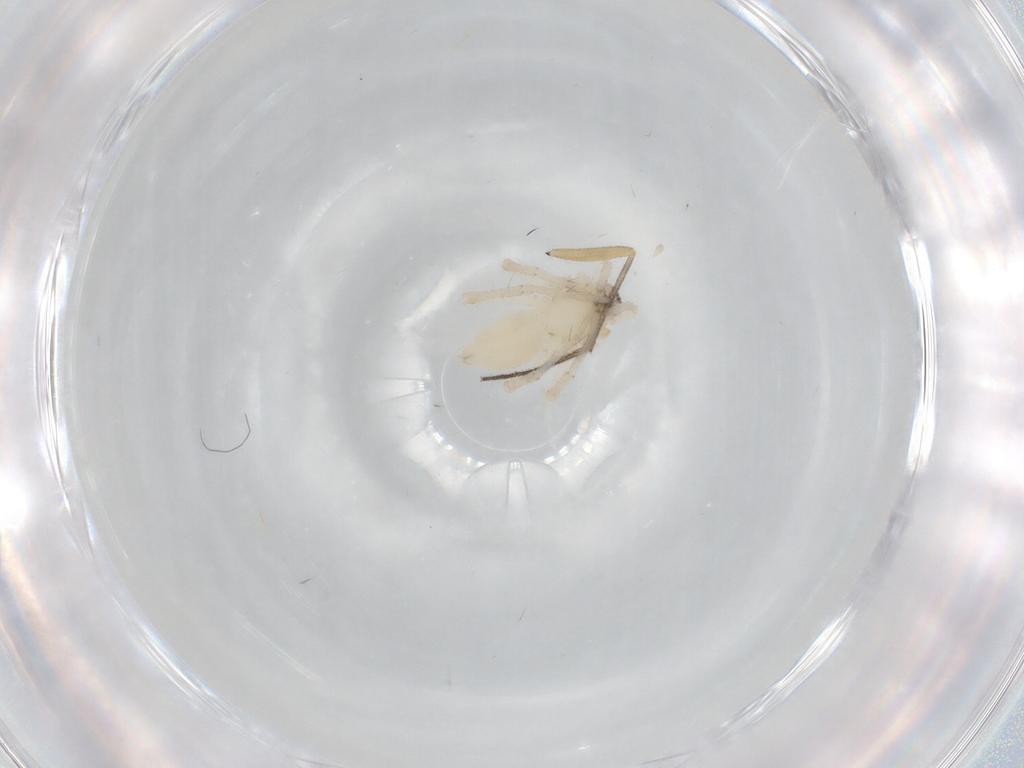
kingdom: Animalia
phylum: Arthropoda
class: Arachnida
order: Araneae
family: Anyphaenidae
